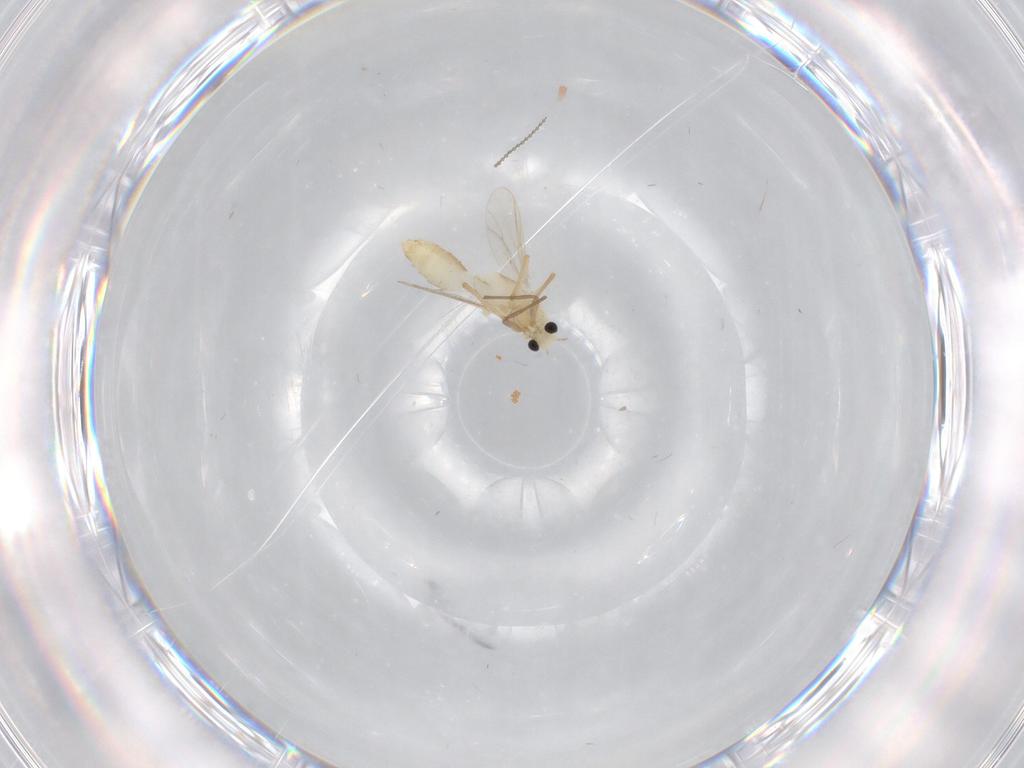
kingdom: Animalia
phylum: Arthropoda
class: Insecta
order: Diptera
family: Chironomidae
